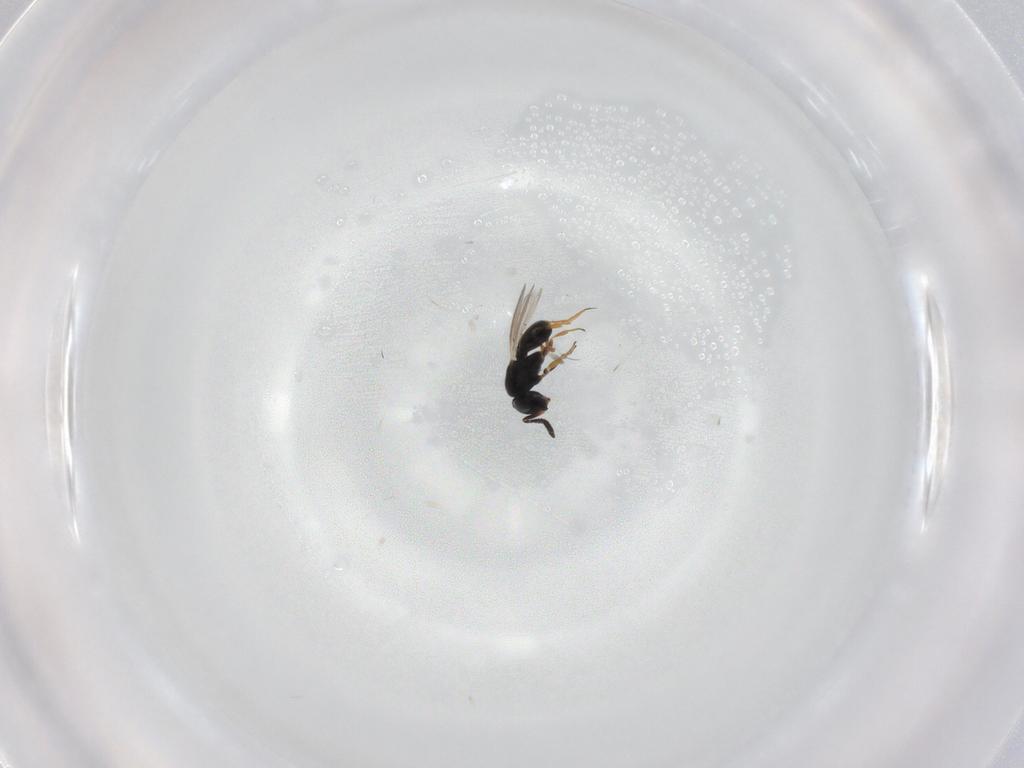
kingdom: Animalia
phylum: Arthropoda
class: Insecta
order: Hymenoptera
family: Scelionidae
